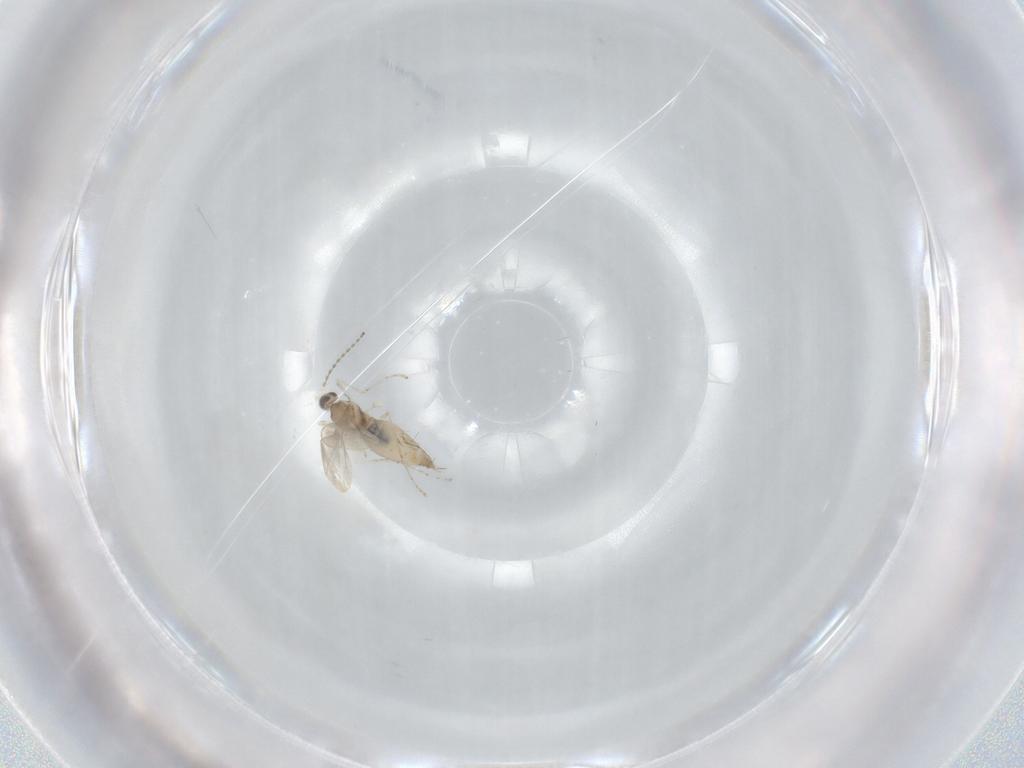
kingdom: Animalia
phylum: Arthropoda
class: Insecta
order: Diptera
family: Cecidomyiidae
